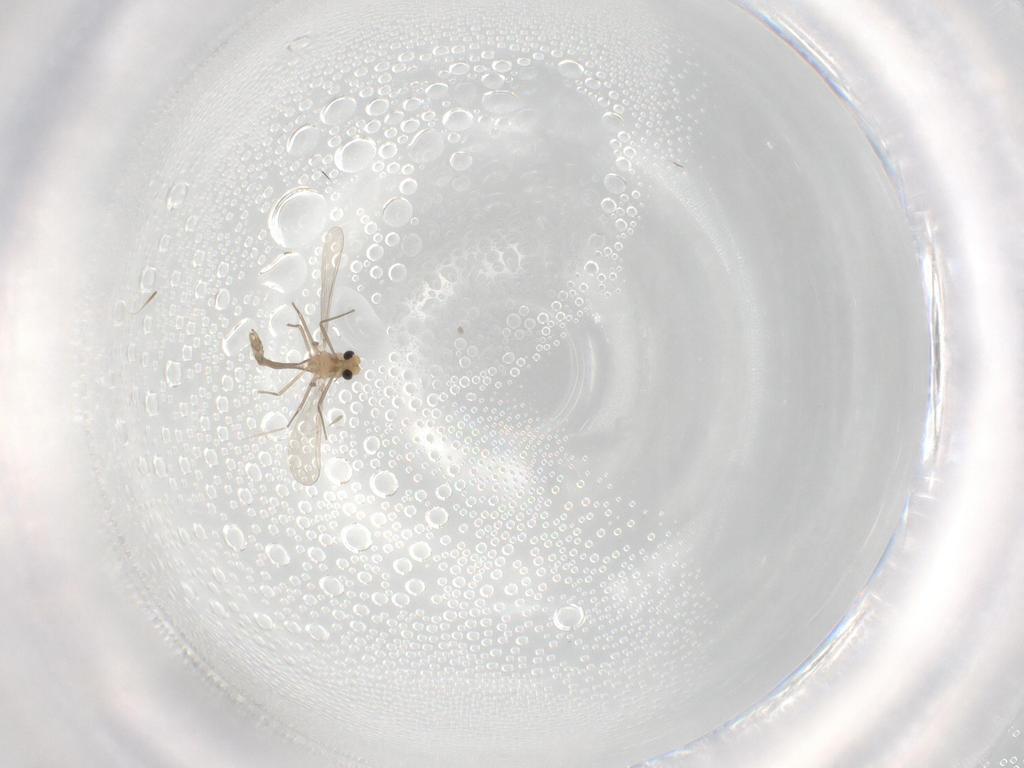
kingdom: Animalia
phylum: Arthropoda
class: Insecta
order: Diptera
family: Chironomidae
